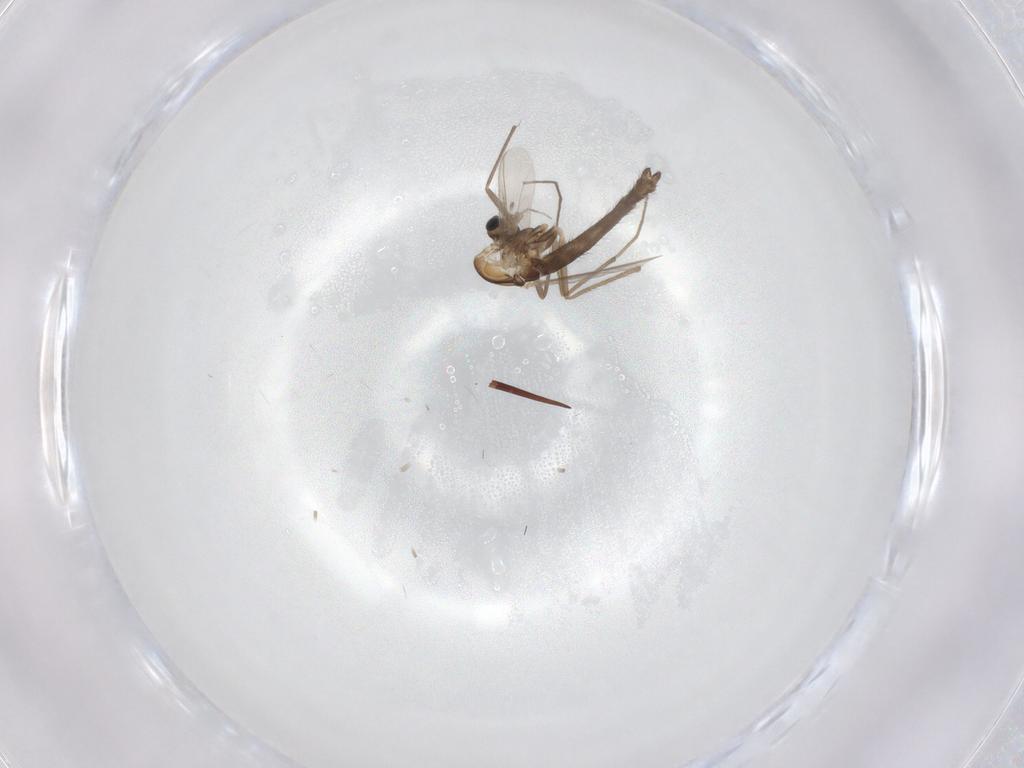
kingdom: Animalia
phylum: Arthropoda
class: Insecta
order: Diptera
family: Chironomidae
